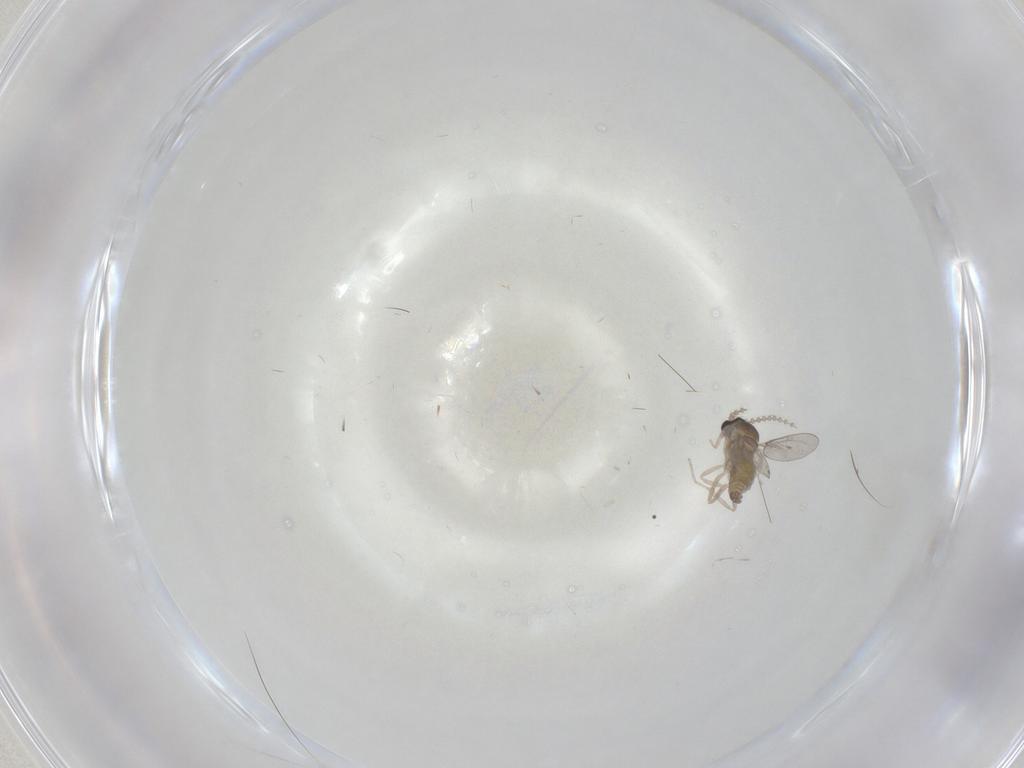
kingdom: Animalia
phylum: Arthropoda
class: Insecta
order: Diptera
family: Cecidomyiidae
